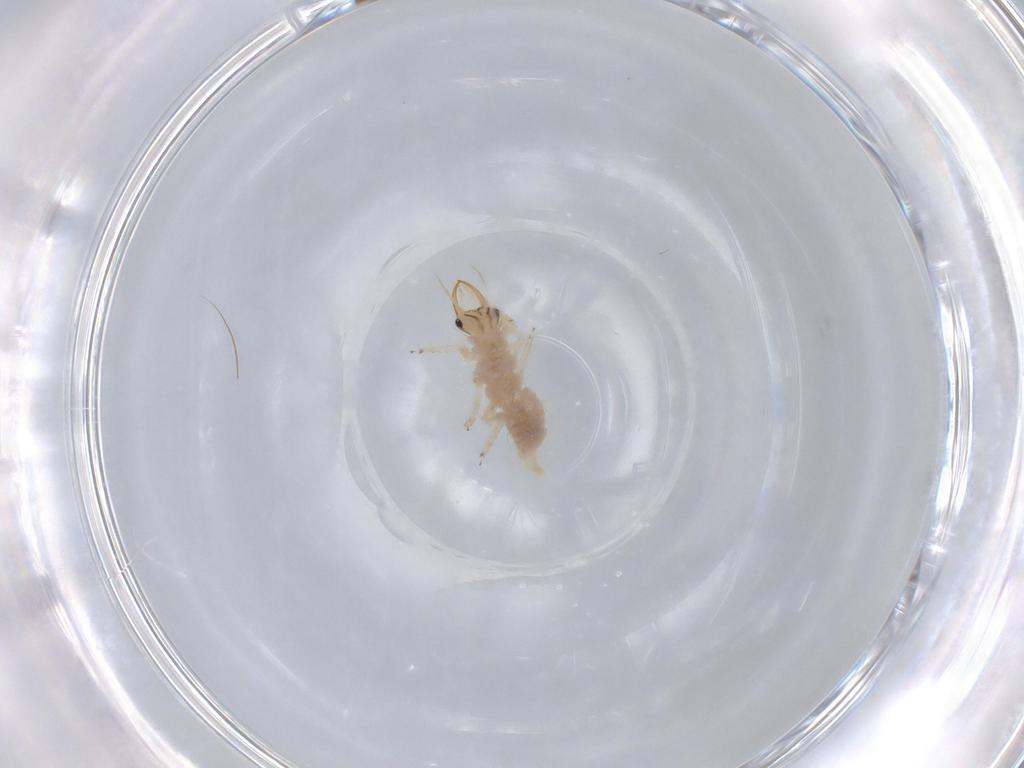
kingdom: Animalia
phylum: Arthropoda
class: Insecta
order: Neuroptera
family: Chrysopidae
